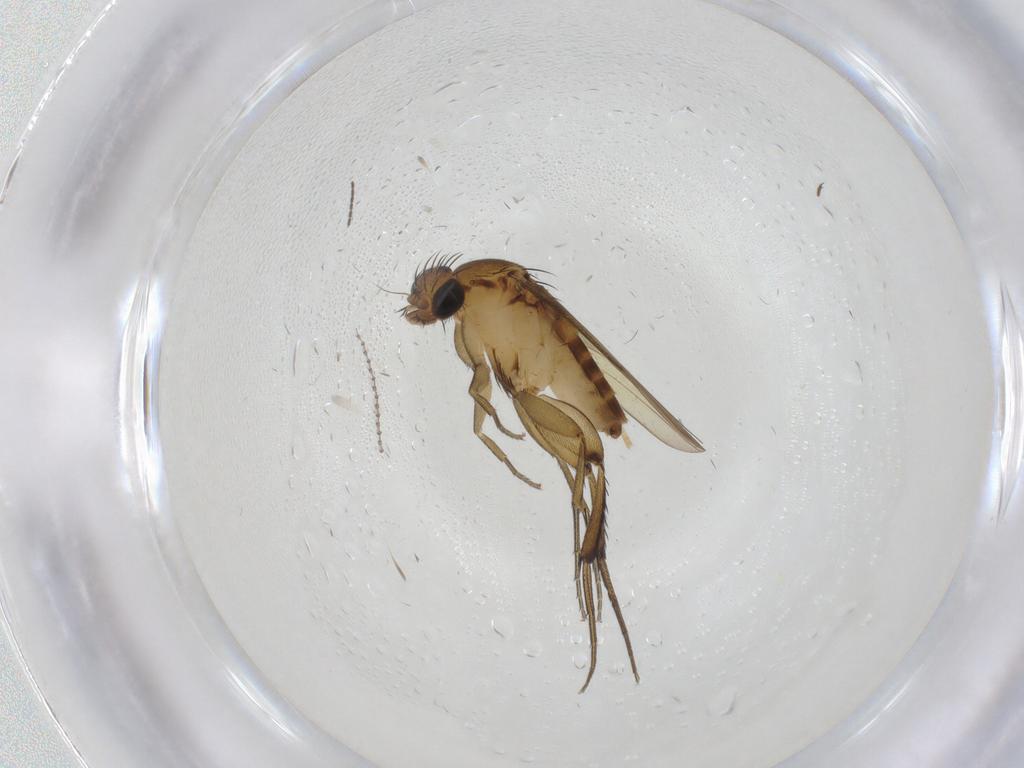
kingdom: Animalia
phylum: Arthropoda
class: Insecta
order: Diptera
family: Phoridae
